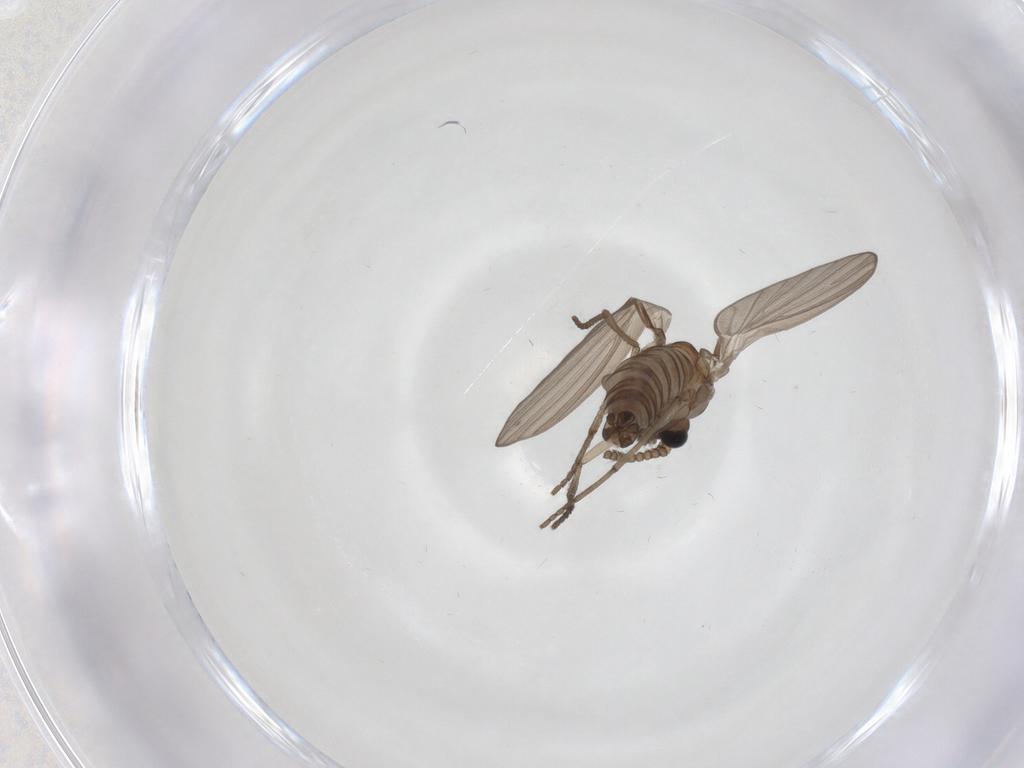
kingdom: Animalia
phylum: Arthropoda
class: Insecta
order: Diptera
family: Psychodidae
